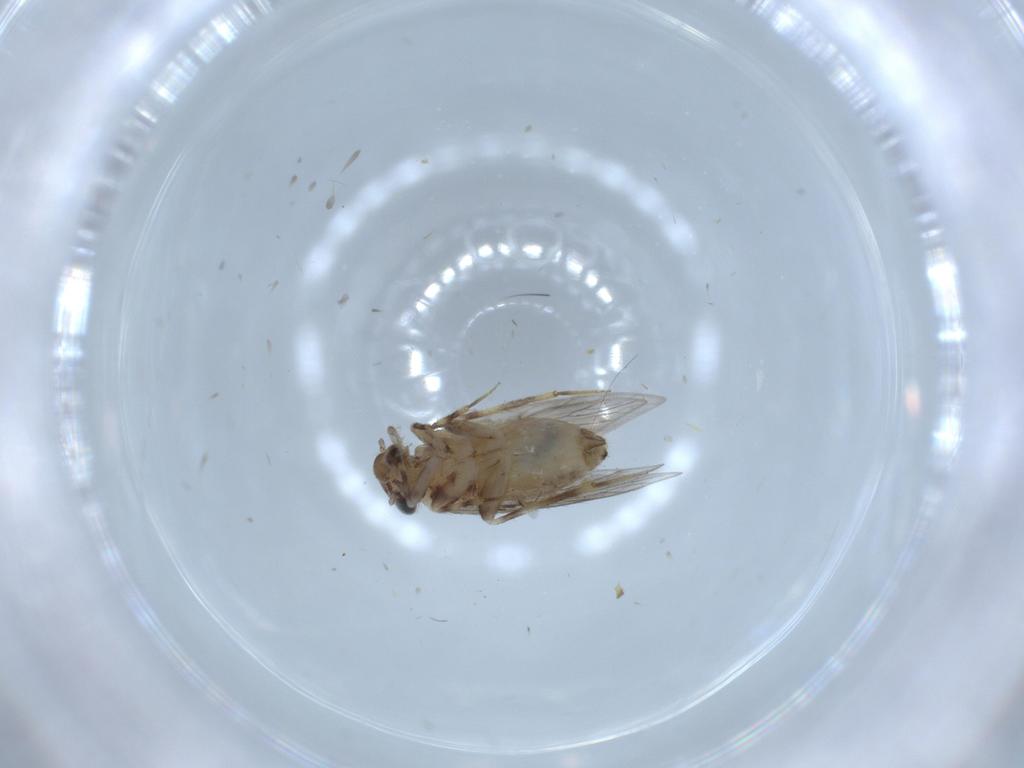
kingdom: Animalia
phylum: Arthropoda
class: Insecta
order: Psocodea
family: Lepidopsocidae
